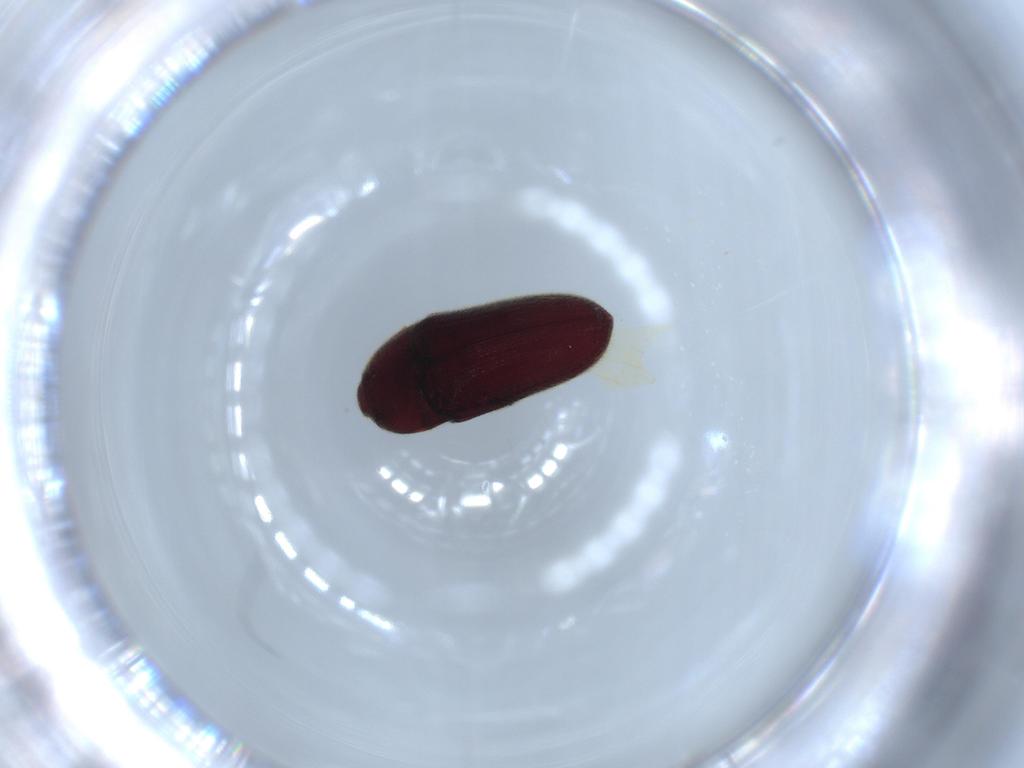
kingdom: Animalia
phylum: Arthropoda
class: Insecta
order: Coleoptera
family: Throscidae
